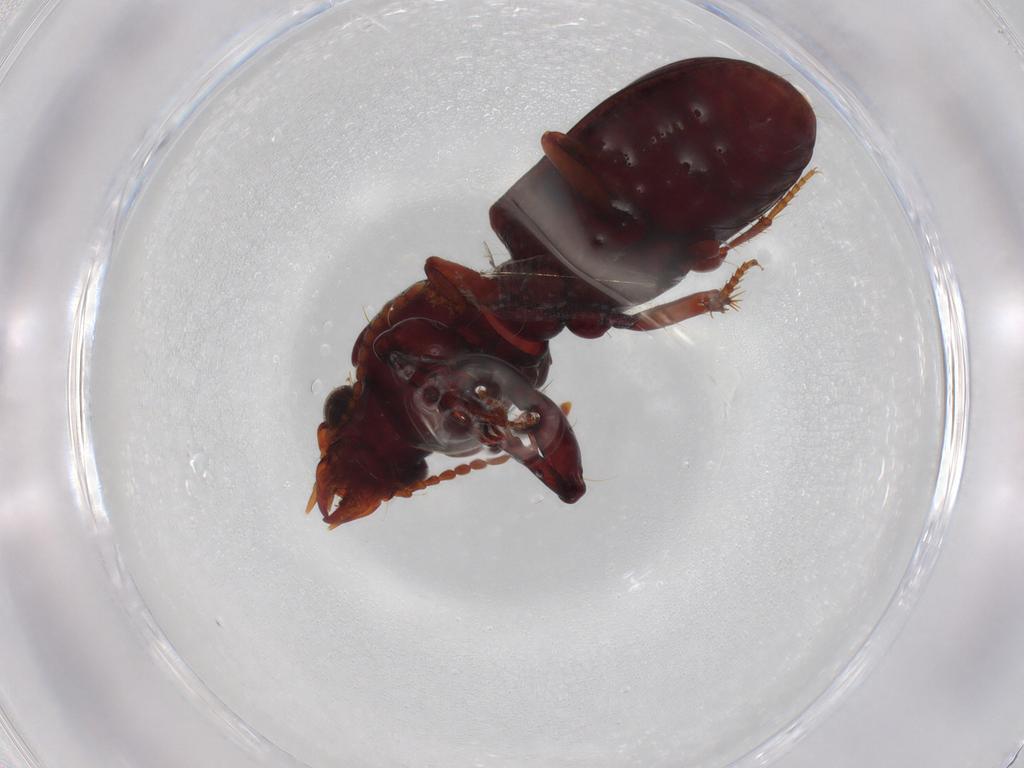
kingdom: Animalia
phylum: Arthropoda
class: Insecta
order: Coleoptera
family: Carabidae
